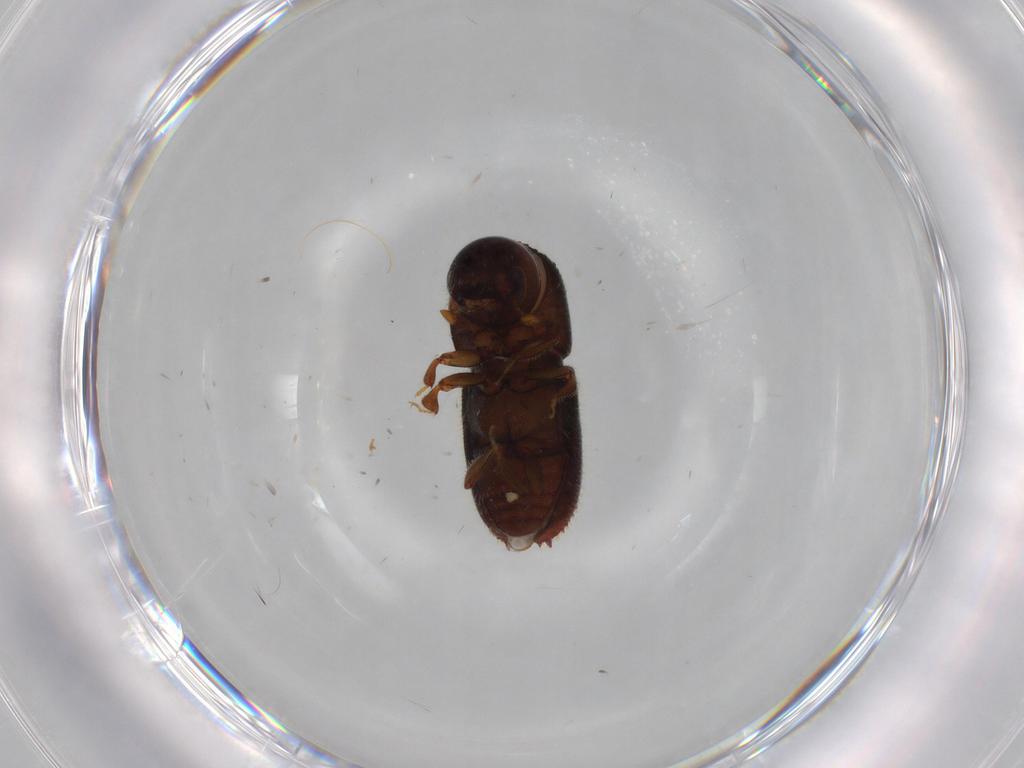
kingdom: Animalia
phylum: Arthropoda
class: Insecta
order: Coleoptera
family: Curculionidae
